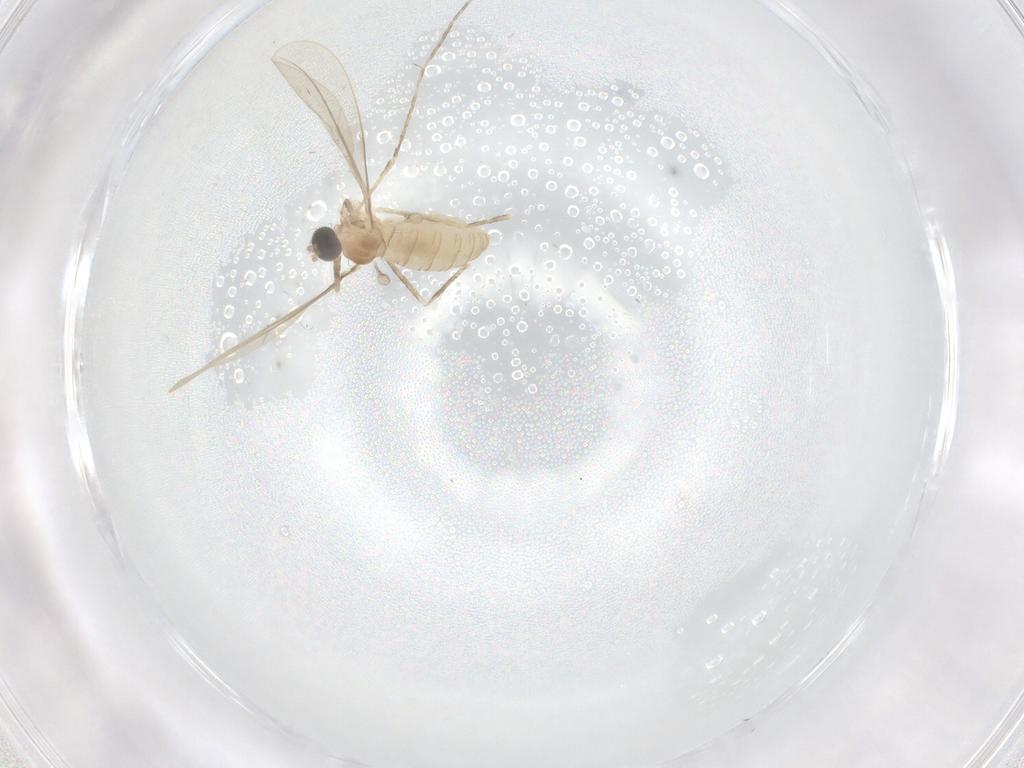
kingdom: Animalia
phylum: Arthropoda
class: Insecta
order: Diptera
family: Cecidomyiidae
